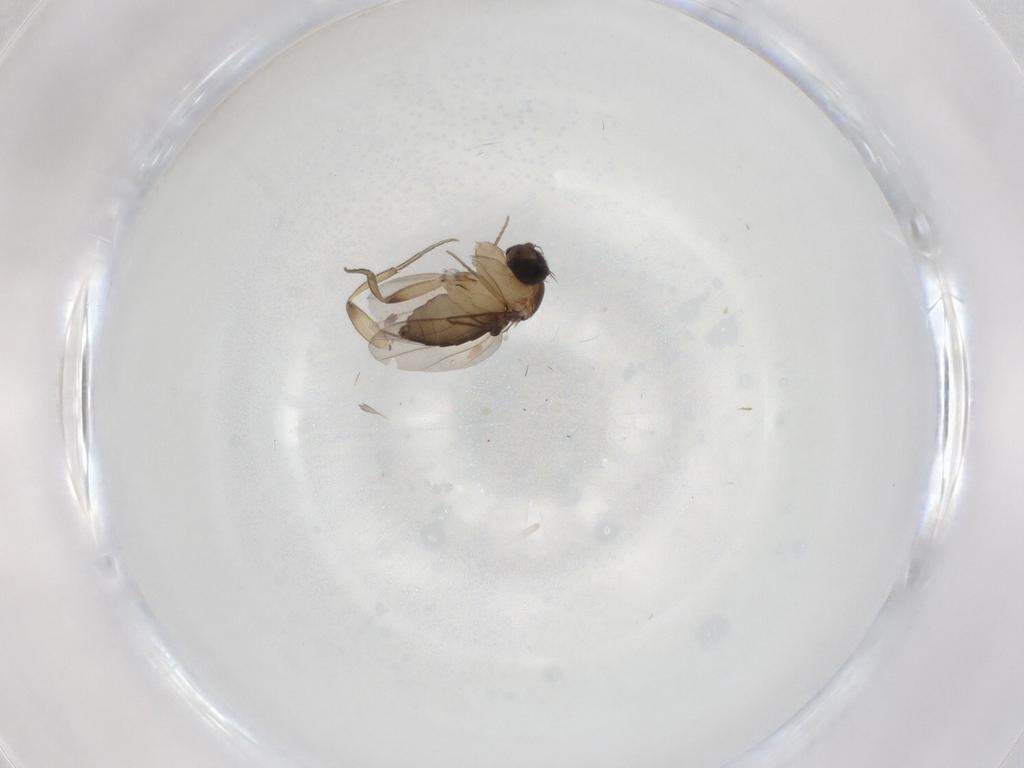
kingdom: Animalia
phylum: Arthropoda
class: Insecta
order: Diptera
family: Phoridae
